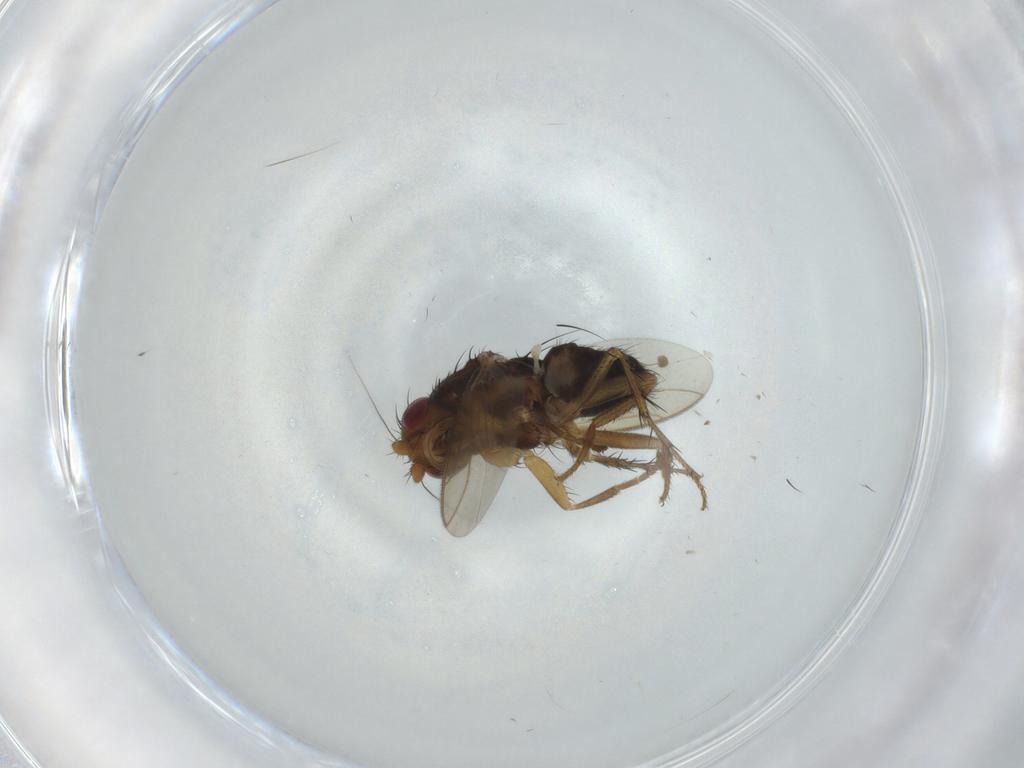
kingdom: Animalia
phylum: Arthropoda
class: Insecta
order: Diptera
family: Sphaeroceridae
